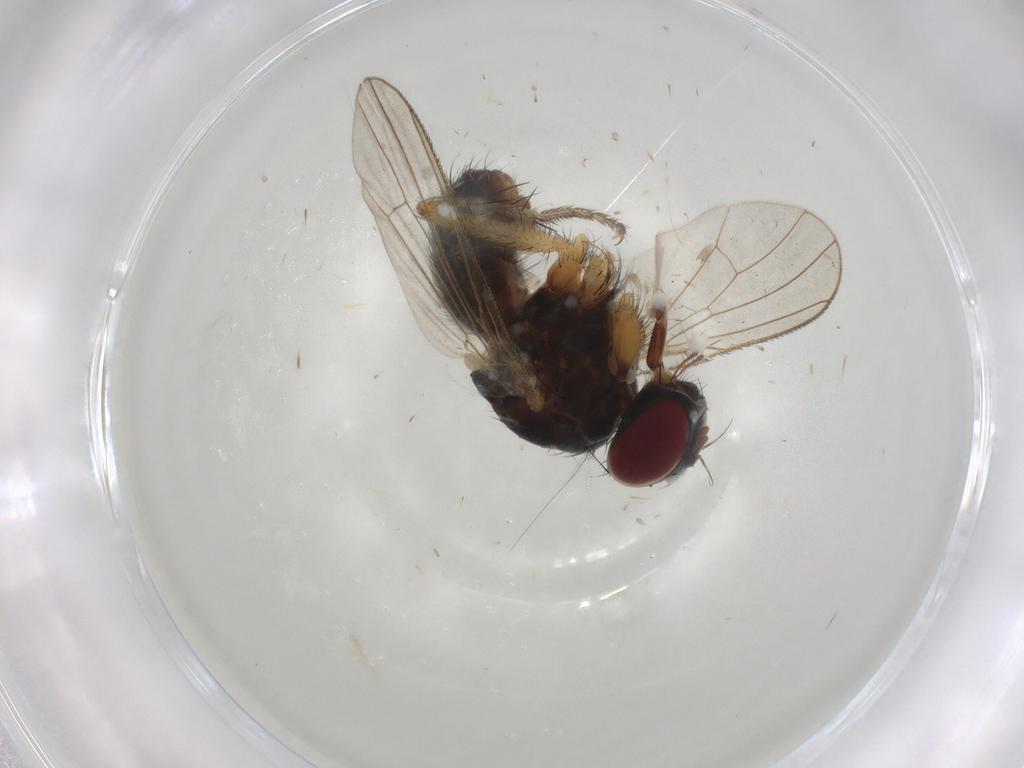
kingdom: Animalia
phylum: Arthropoda
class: Insecta
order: Diptera
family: Muscidae
